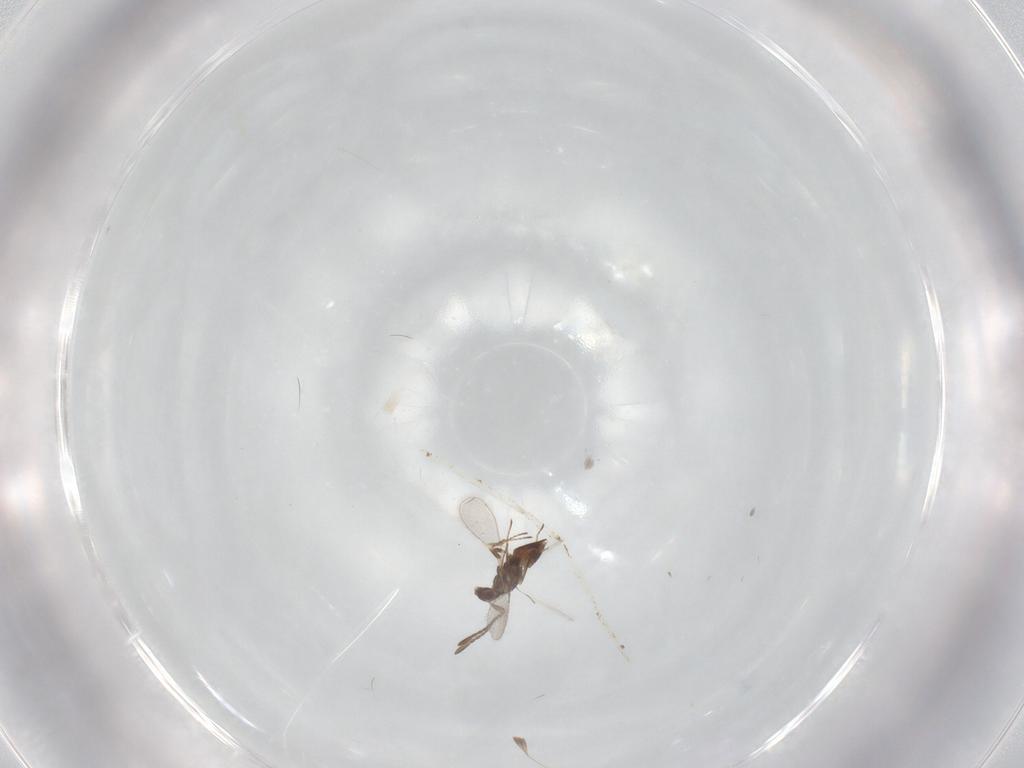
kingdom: Animalia
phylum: Arthropoda
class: Insecta
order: Hymenoptera
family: Mymaridae
